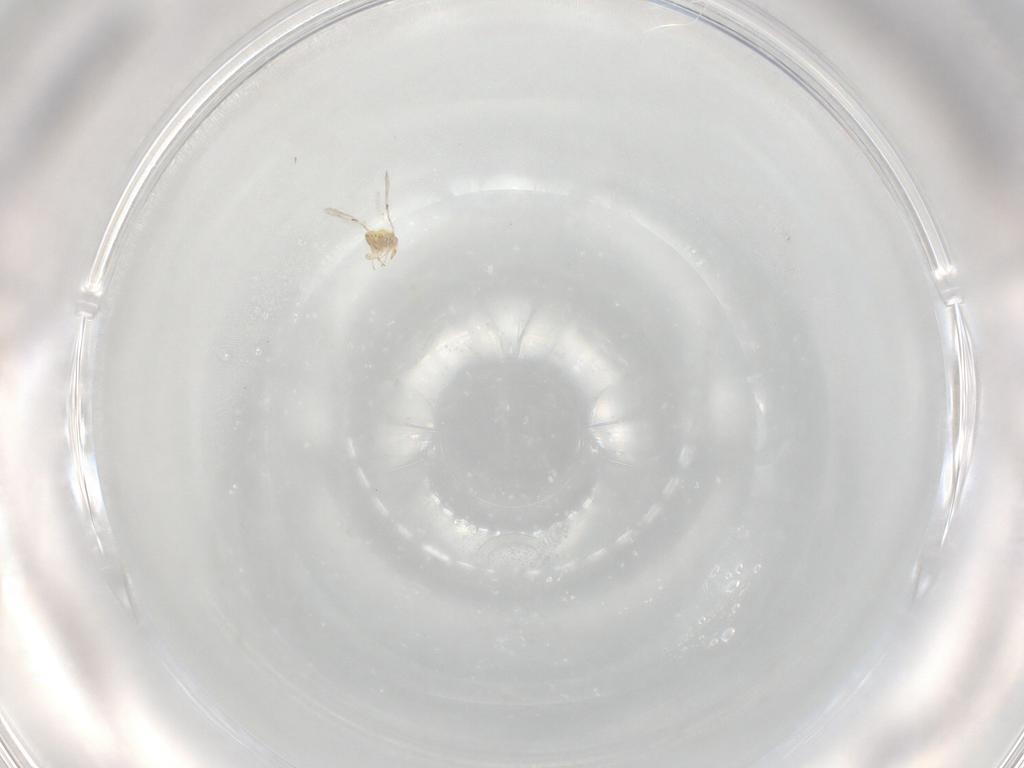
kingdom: Animalia
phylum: Arthropoda
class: Insecta
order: Hymenoptera
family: Trichogrammatidae
